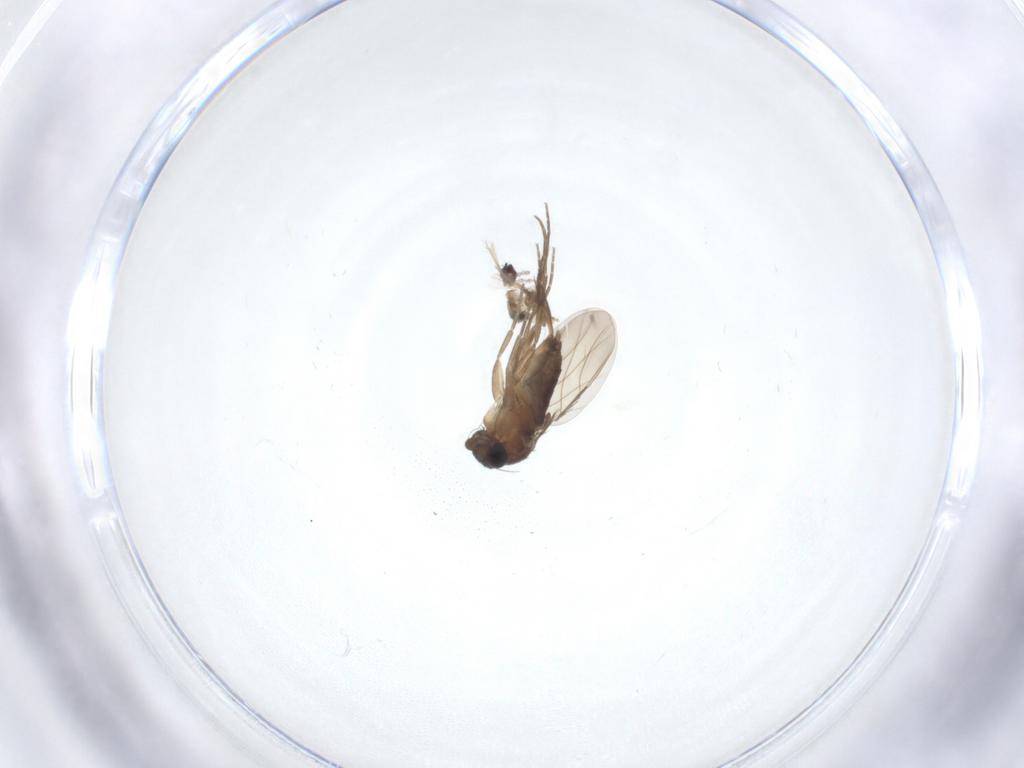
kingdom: Animalia
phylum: Arthropoda
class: Insecta
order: Diptera
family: Phoridae
